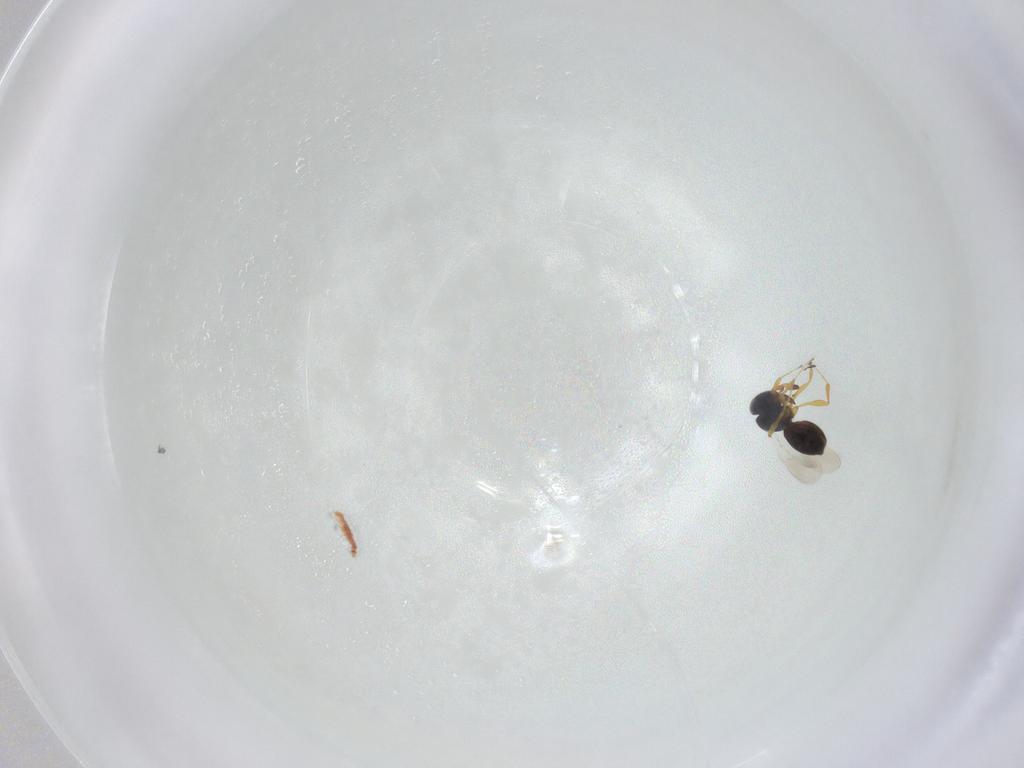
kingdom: Animalia
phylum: Arthropoda
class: Insecta
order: Hymenoptera
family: Platygastridae
